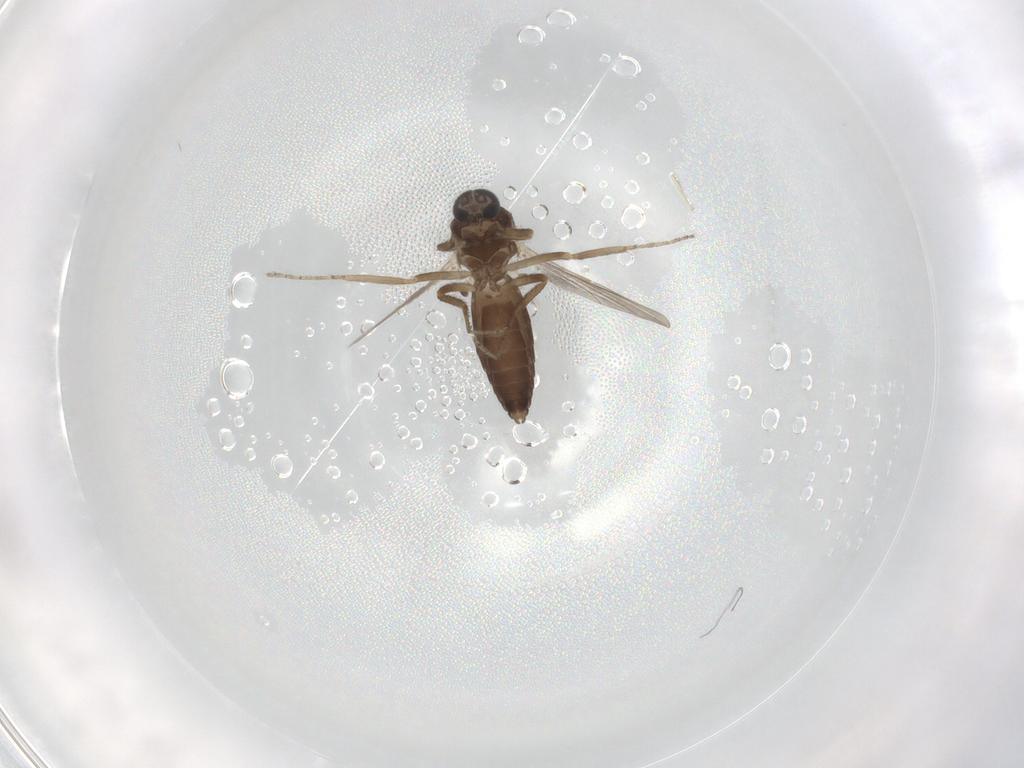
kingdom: Animalia
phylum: Arthropoda
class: Insecta
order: Diptera
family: Ceratopogonidae
